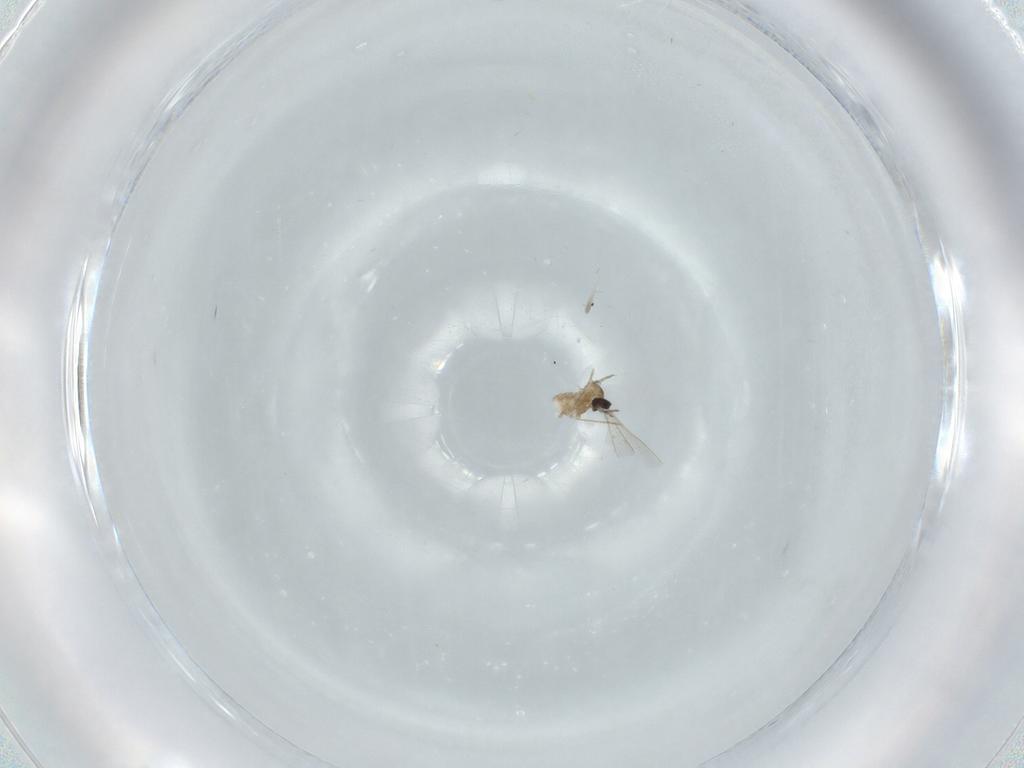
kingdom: Animalia
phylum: Arthropoda
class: Insecta
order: Diptera
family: Cecidomyiidae
